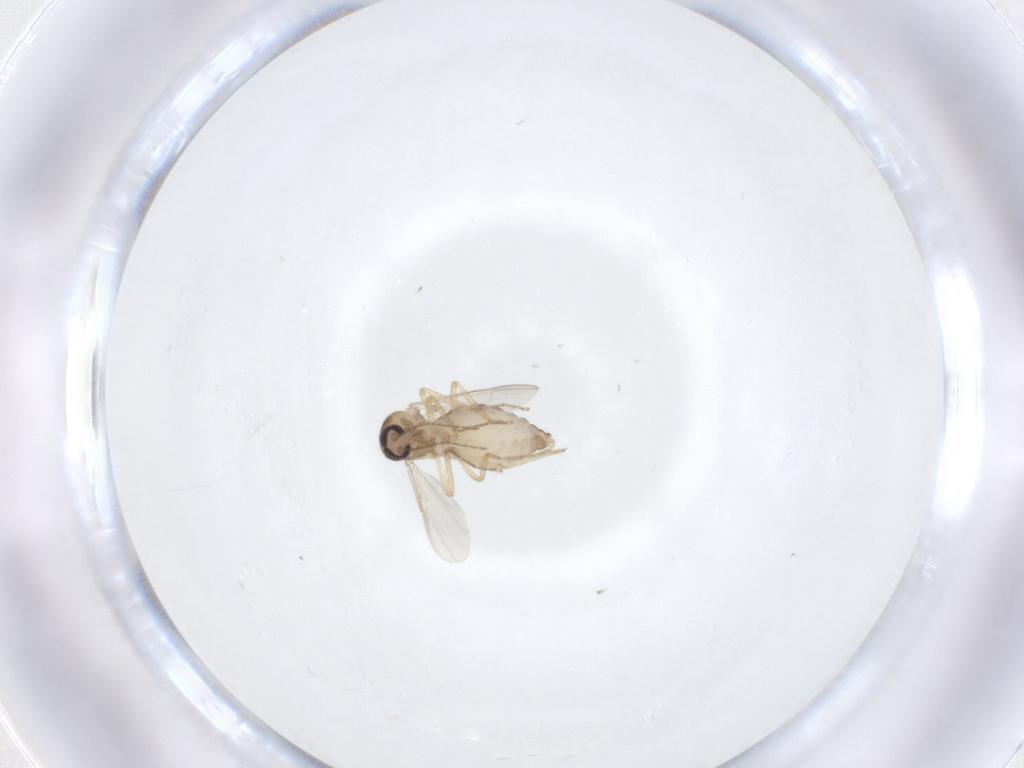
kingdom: Animalia
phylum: Arthropoda
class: Insecta
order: Diptera
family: Ceratopogonidae
